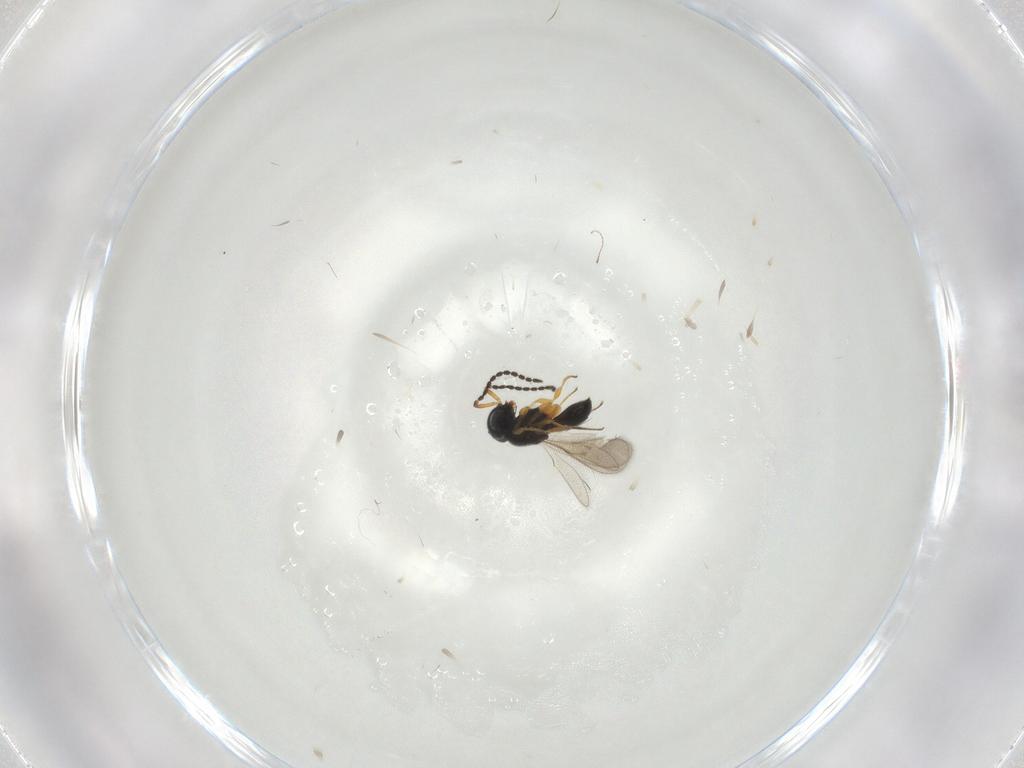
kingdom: Animalia
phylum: Arthropoda
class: Insecta
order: Hymenoptera
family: Scelionidae
